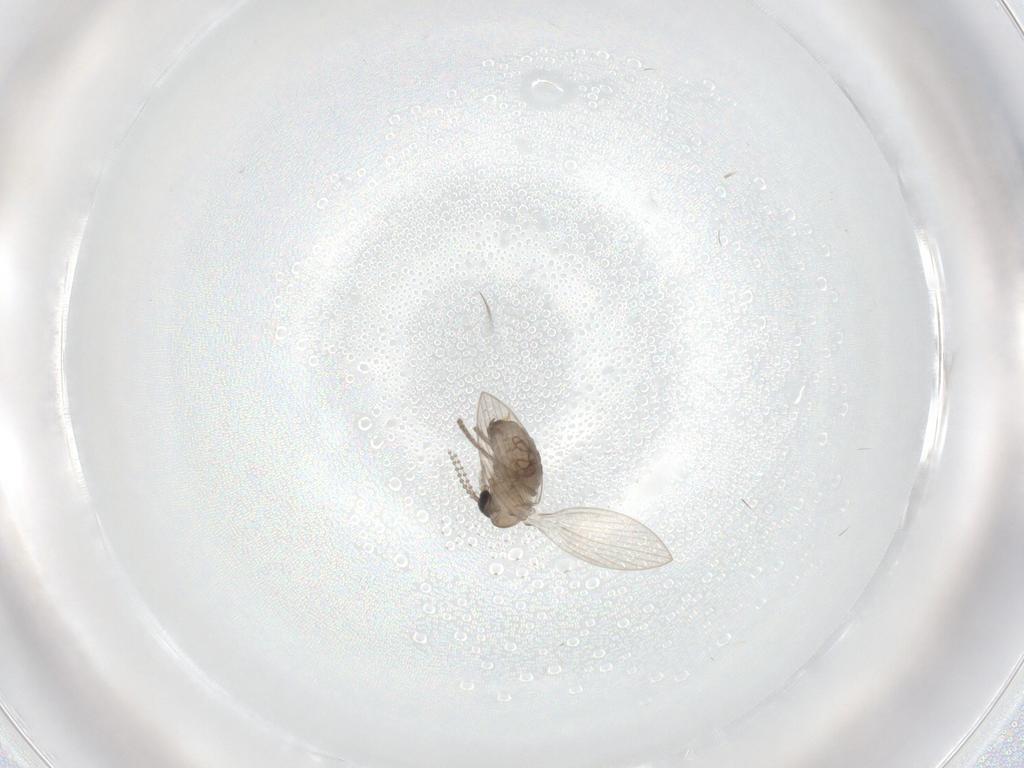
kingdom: Animalia
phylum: Arthropoda
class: Insecta
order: Diptera
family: Psychodidae
